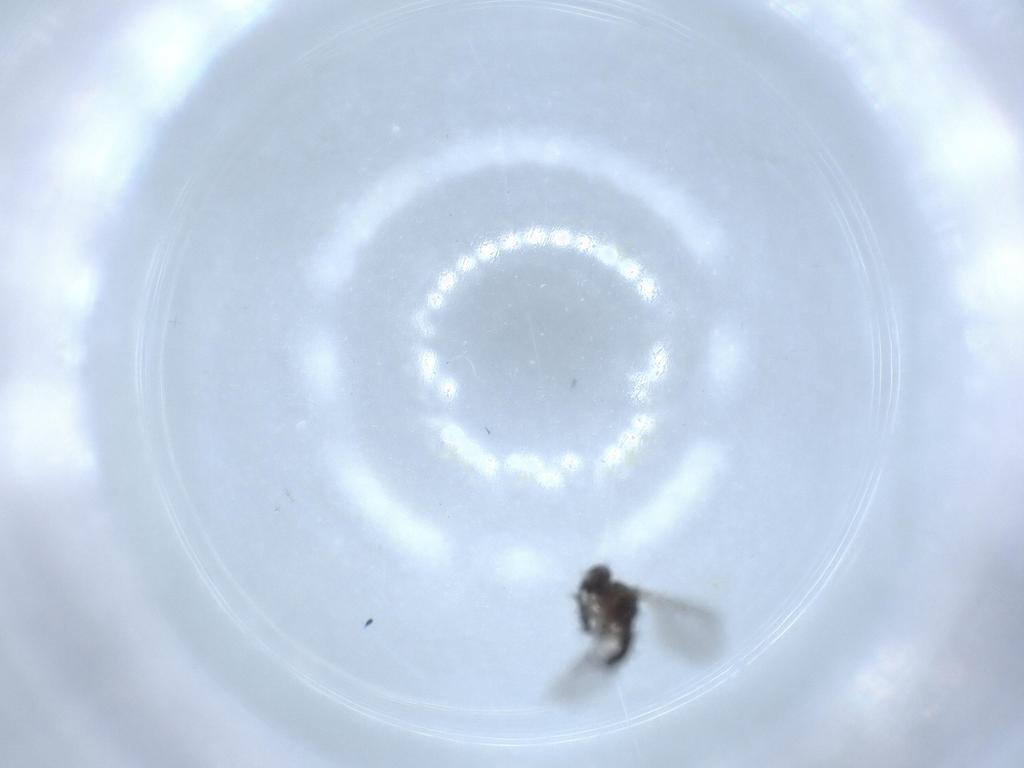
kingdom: Animalia
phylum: Arthropoda
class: Insecta
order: Diptera
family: Sciaridae
